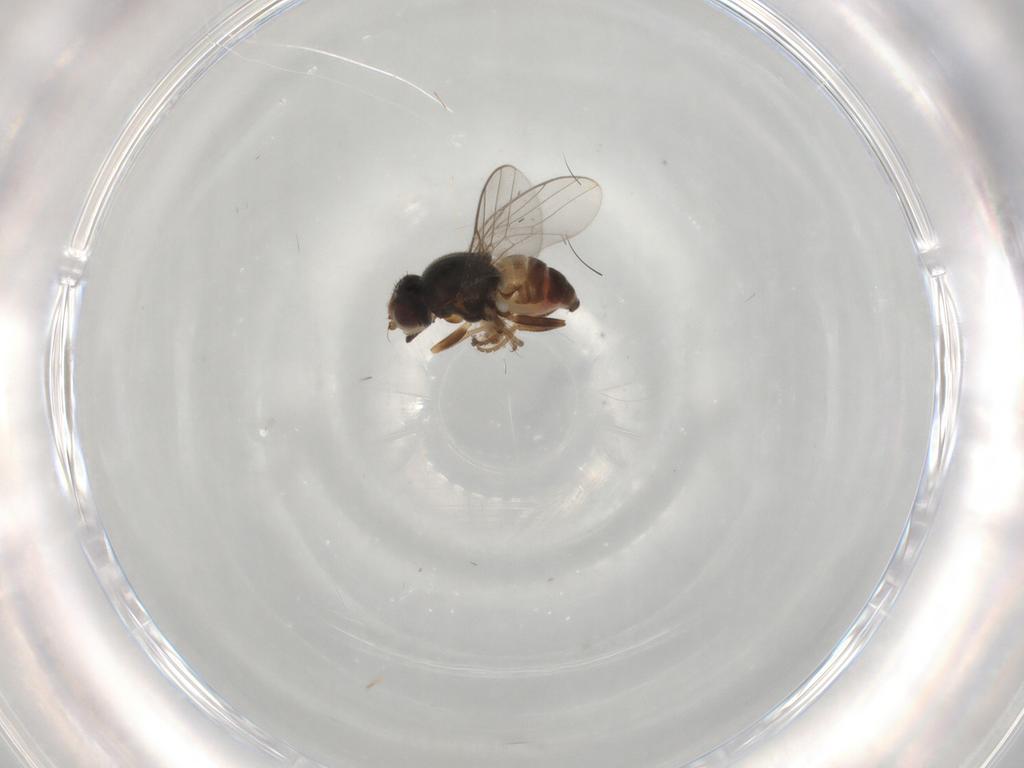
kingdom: Animalia
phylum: Arthropoda
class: Insecta
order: Diptera
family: Chloropidae
